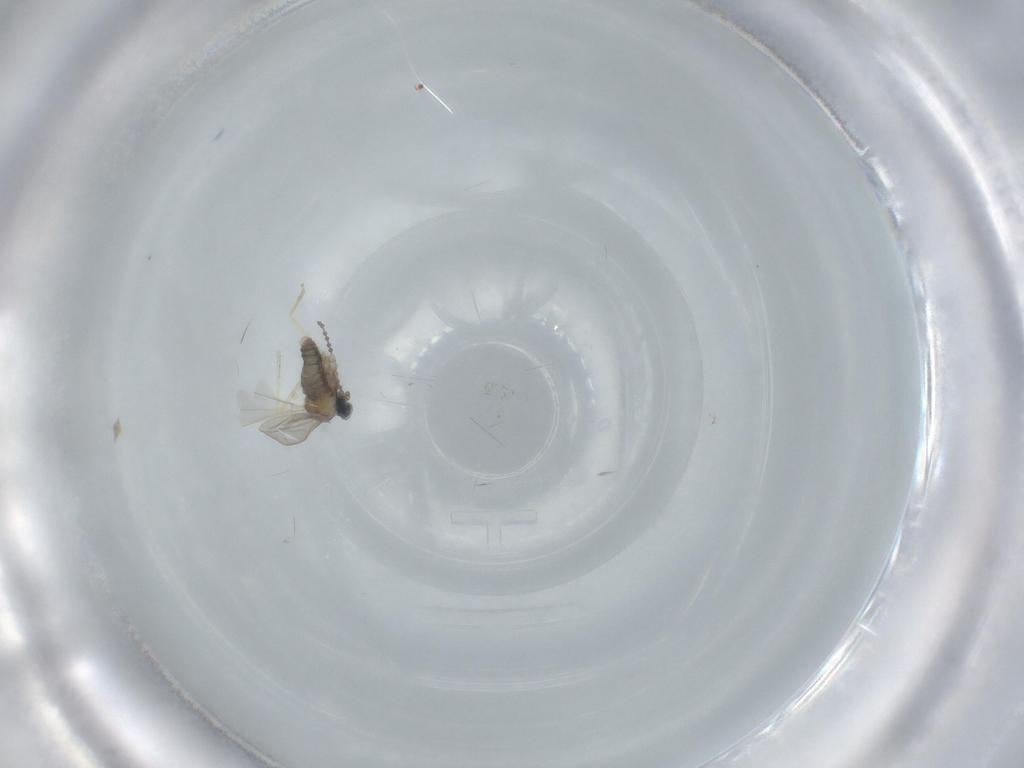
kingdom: Animalia
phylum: Arthropoda
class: Insecta
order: Diptera
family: Cecidomyiidae
